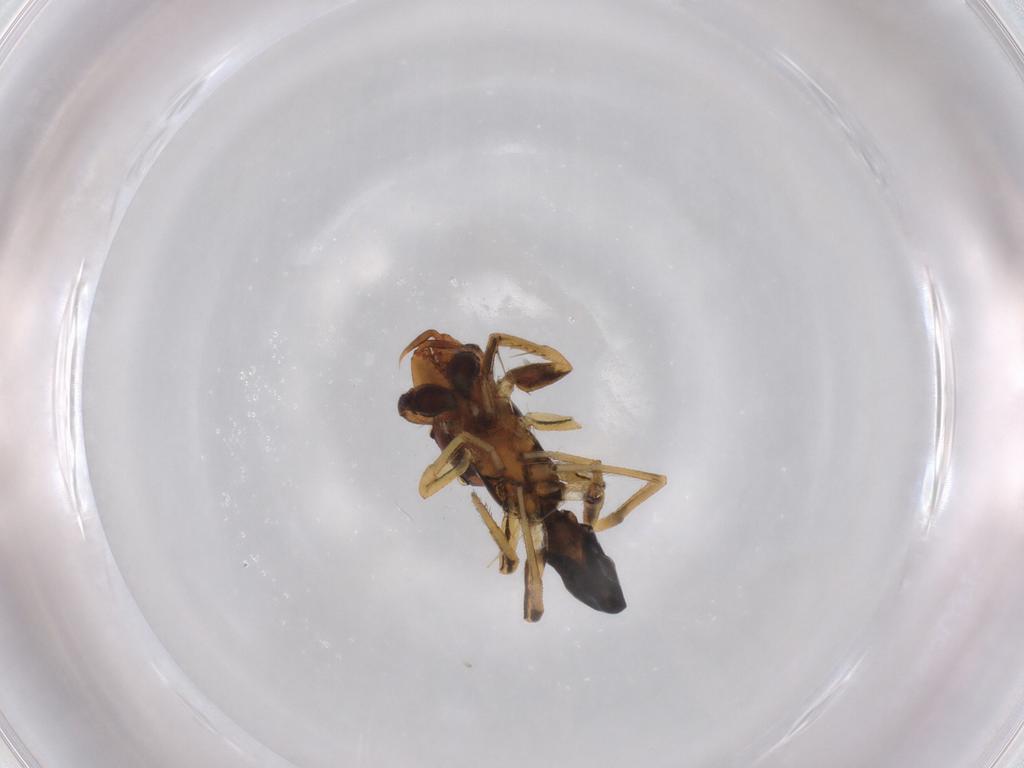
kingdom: Animalia
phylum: Arthropoda
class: Arachnida
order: Araneae
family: Salticidae
